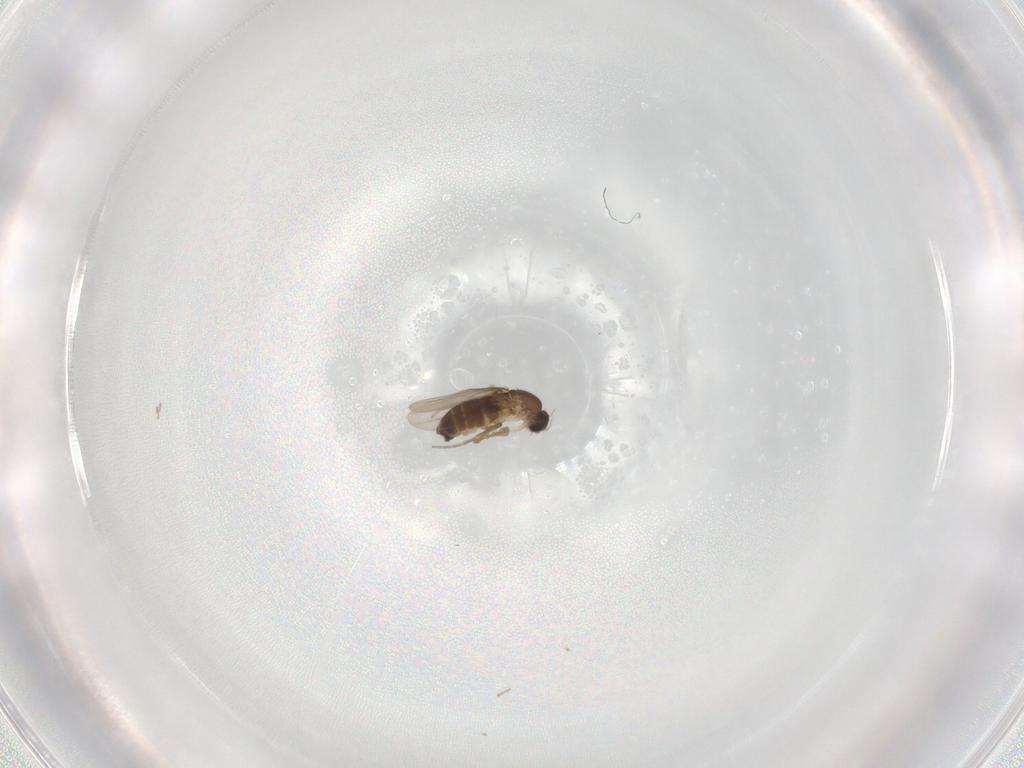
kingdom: Animalia
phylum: Arthropoda
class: Insecta
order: Diptera
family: Phoridae
